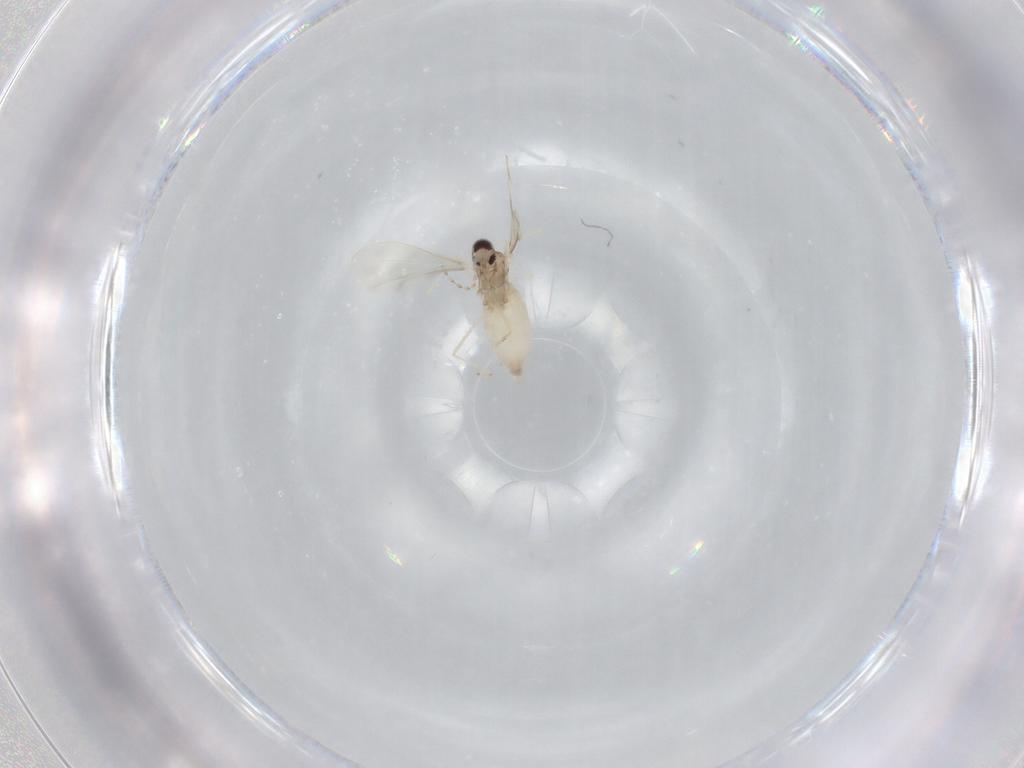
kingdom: Animalia
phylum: Arthropoda
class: Insecta
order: Diptera
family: Cecidomyiidae
